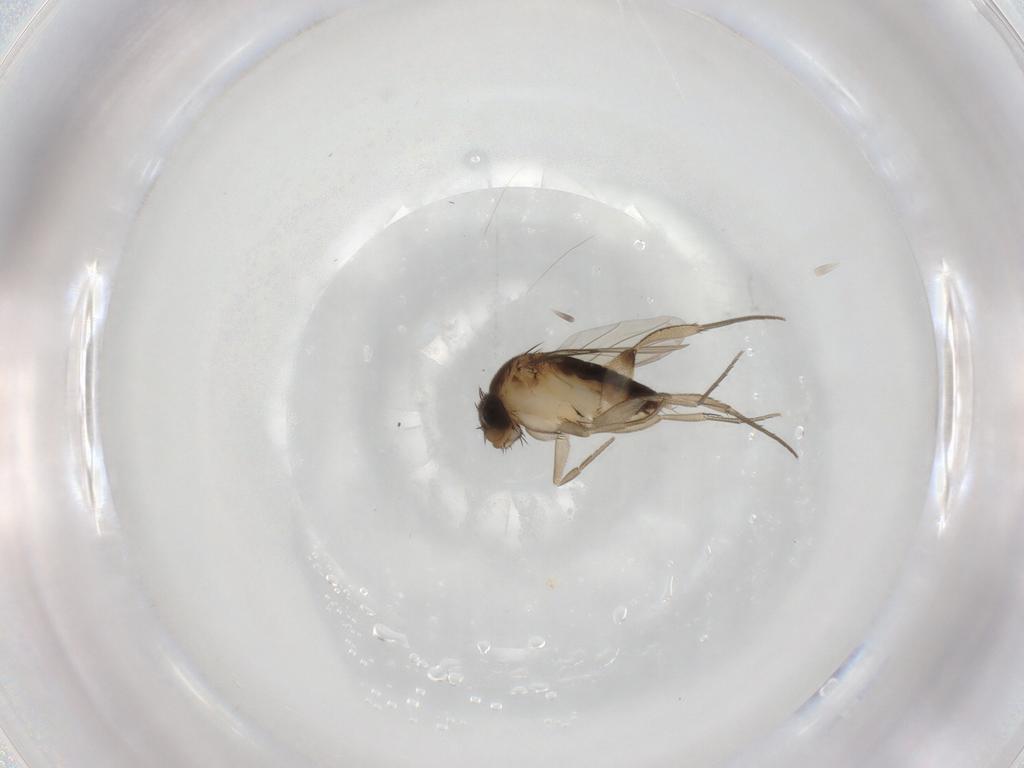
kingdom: Animalia
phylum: Arthropoda
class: Insecta
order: Diptera
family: Phoridae
